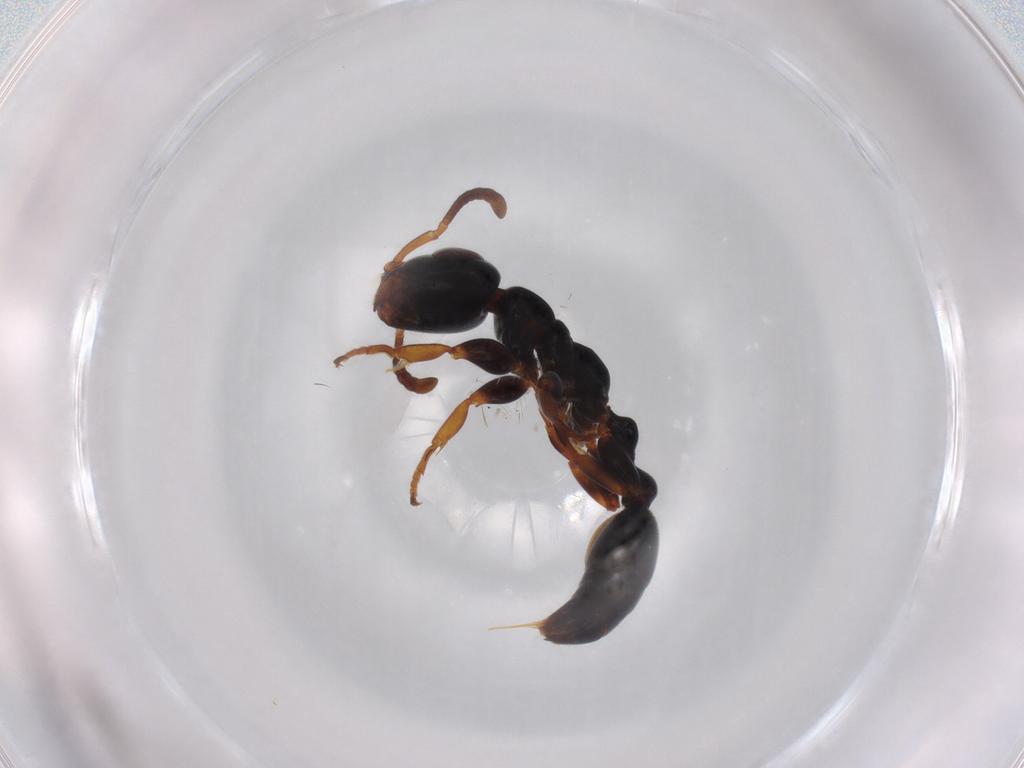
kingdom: Animalia
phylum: Arthropoda
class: Insecta
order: Hymenoptera
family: Formicidae
